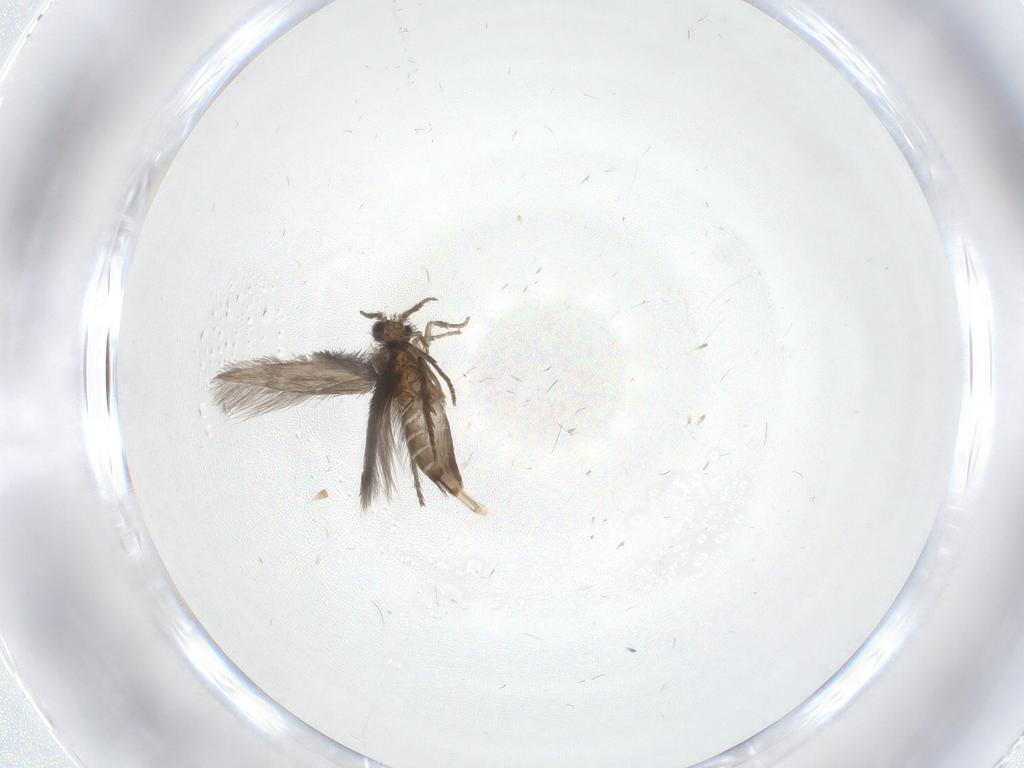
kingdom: Animalia
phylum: Arthropoda
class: Insecta
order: Trichoptera
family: Hydroptilidae
